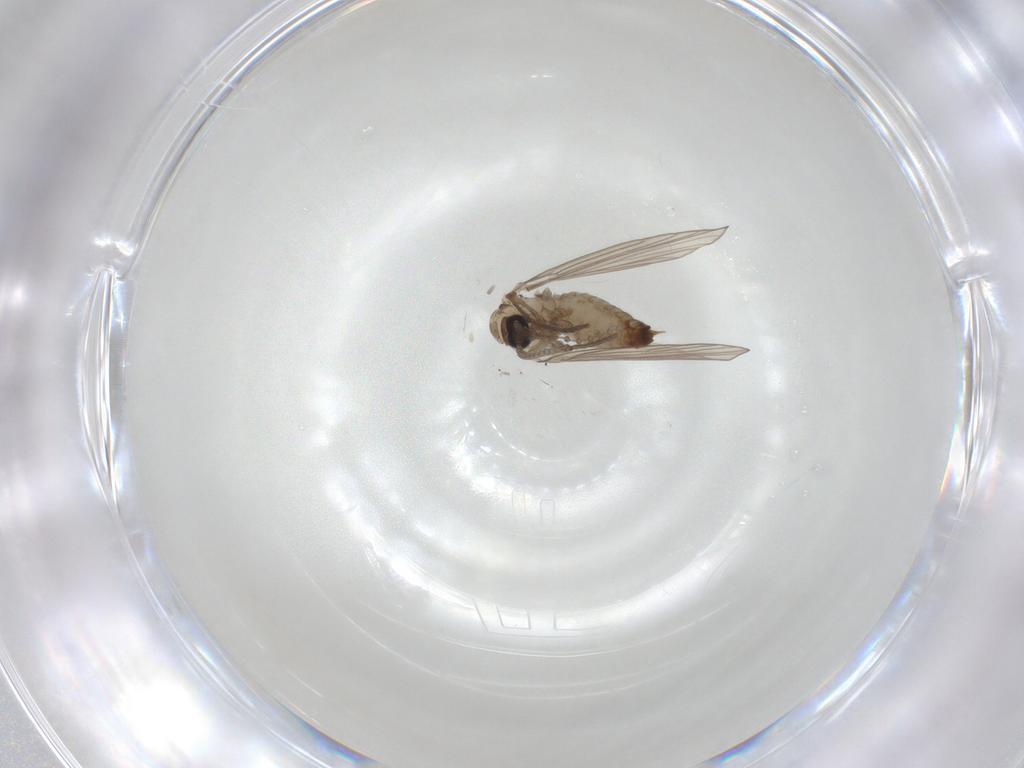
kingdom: Animalia
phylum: Arthropoda
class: Insecta
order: Diptera
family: Psychodidae
